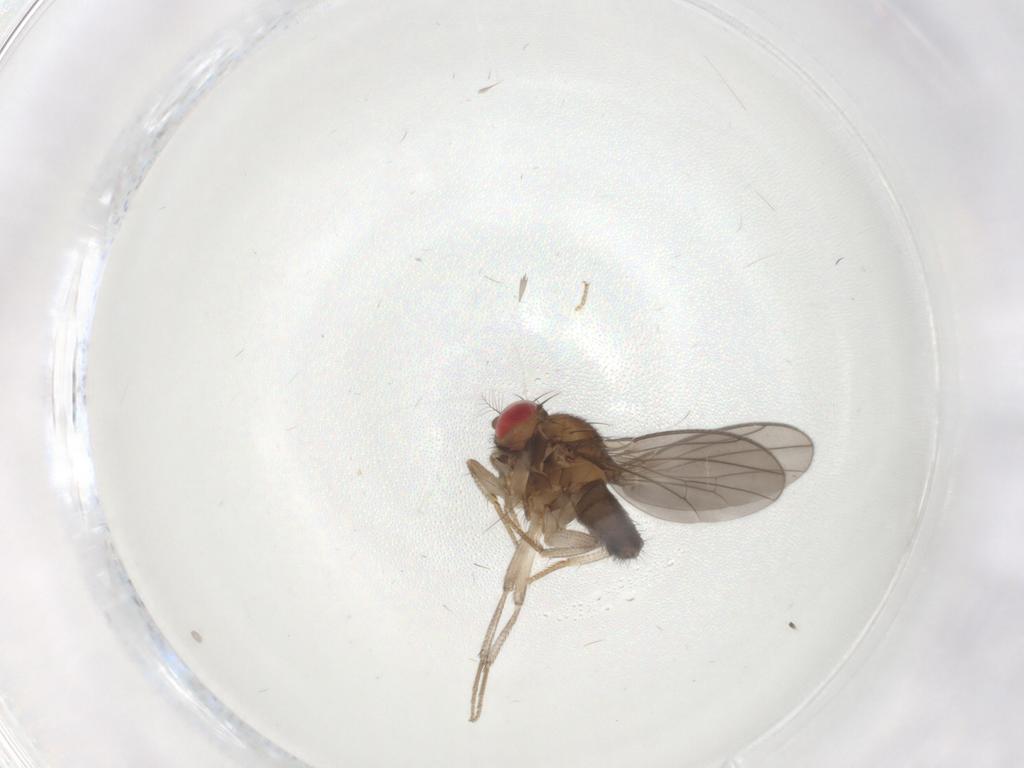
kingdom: Animalia
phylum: Arthropoda
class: Insecta
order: Diptera
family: Drosophilidae
